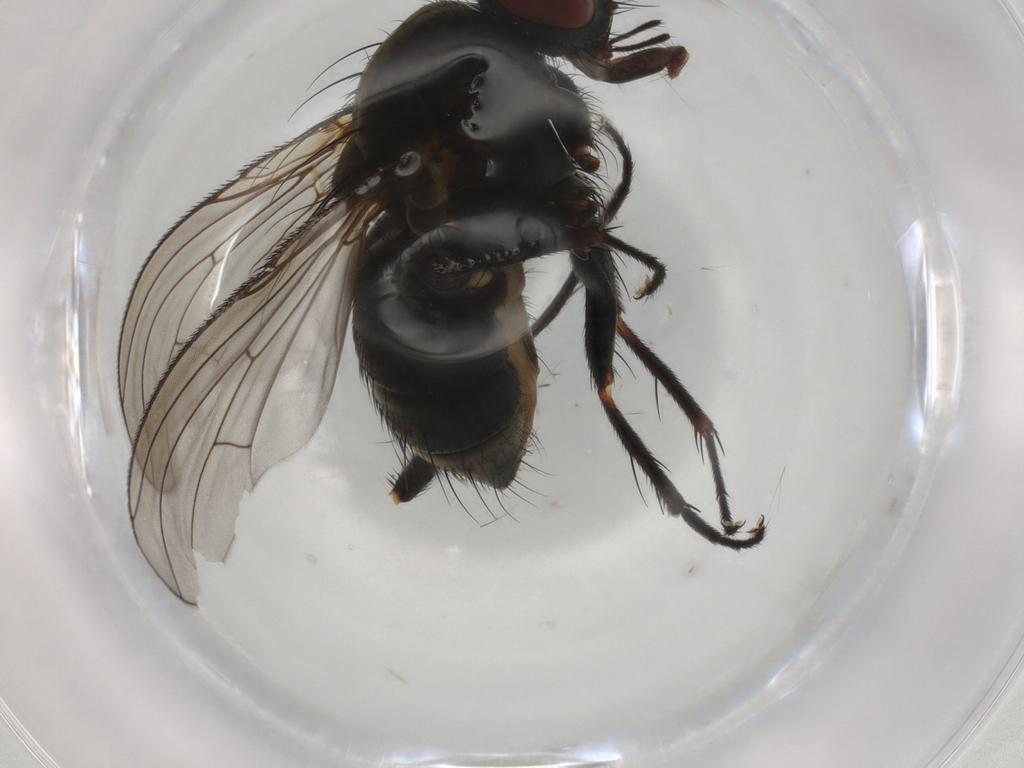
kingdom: Animalia
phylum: Arthropoda
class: Insecta
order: Diptera
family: Muscidae
